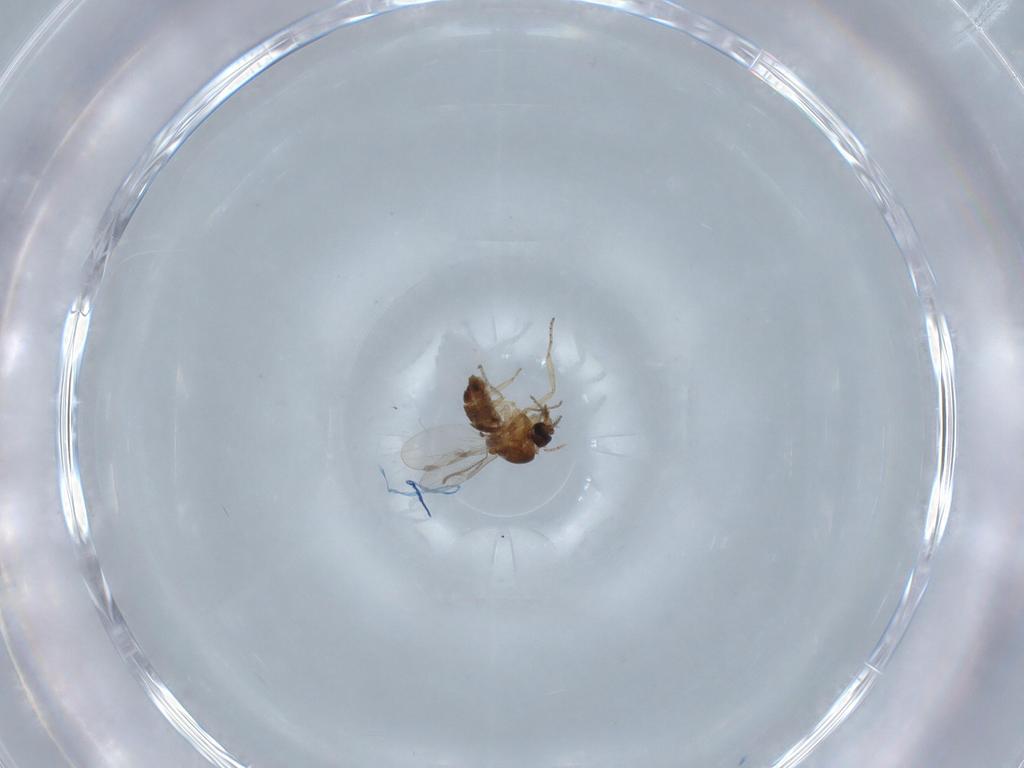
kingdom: Animalia
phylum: Arthropoda
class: Insecta
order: Diptera
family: Ceratopogonidae
